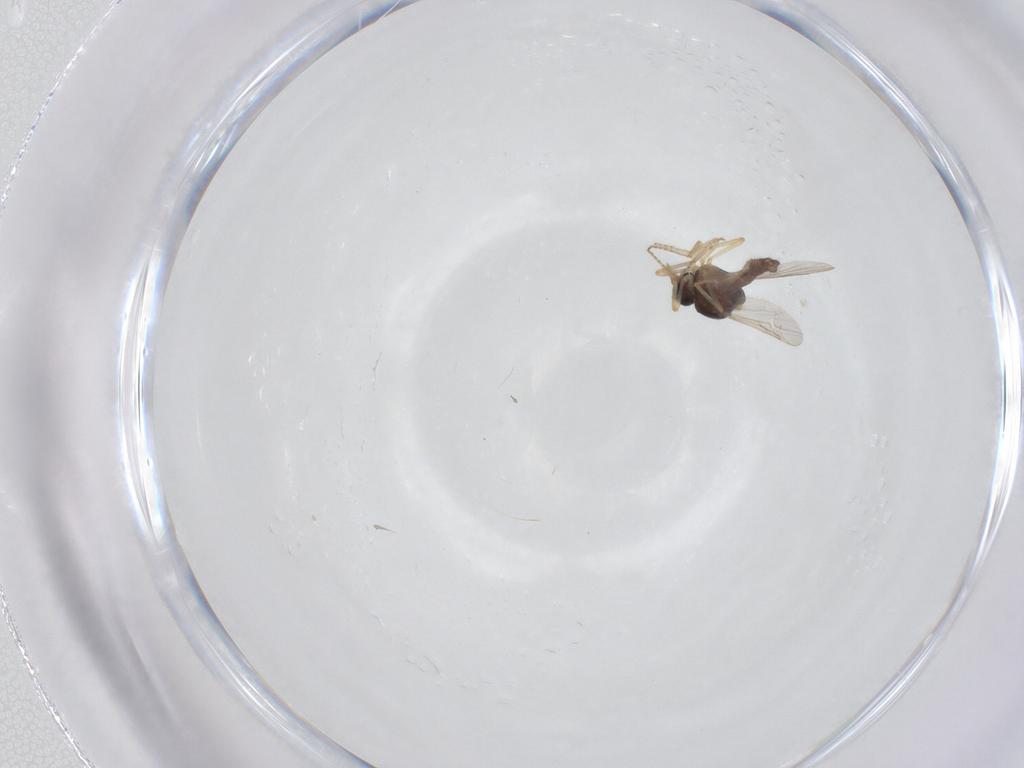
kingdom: Animalia
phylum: Arthropoda
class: Insecta
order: Diptera
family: Ceratopogonidae
